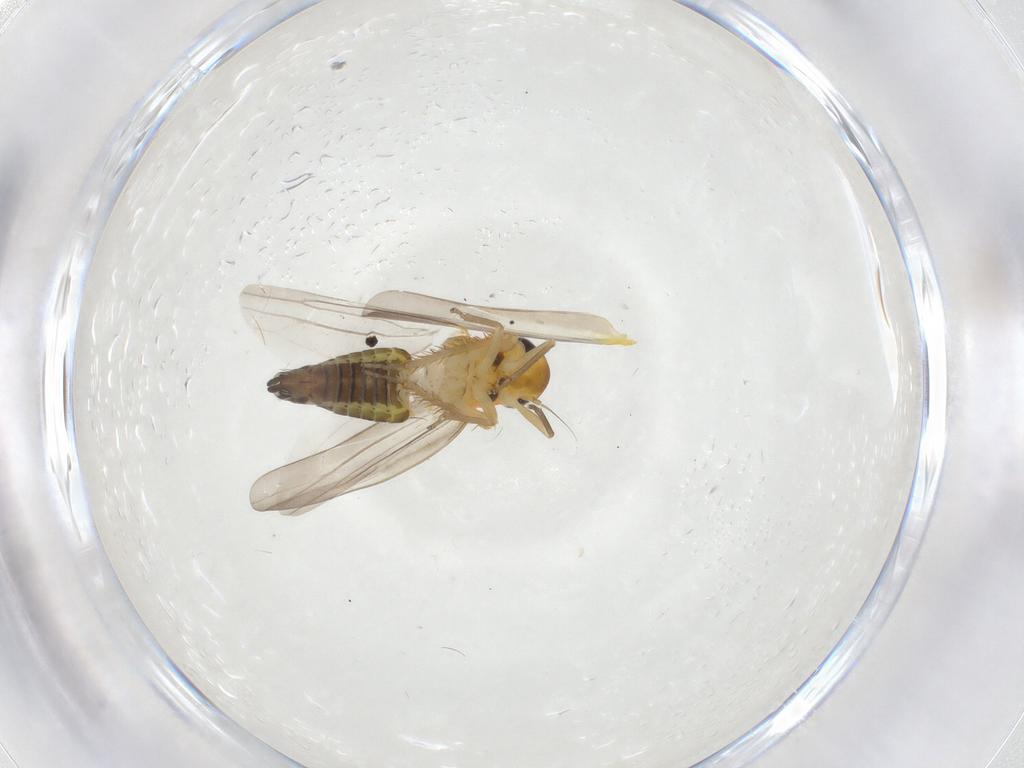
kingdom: Animalia
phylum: Arthropoda
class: Insecta
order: Hemiptera
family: Cicadellidae
